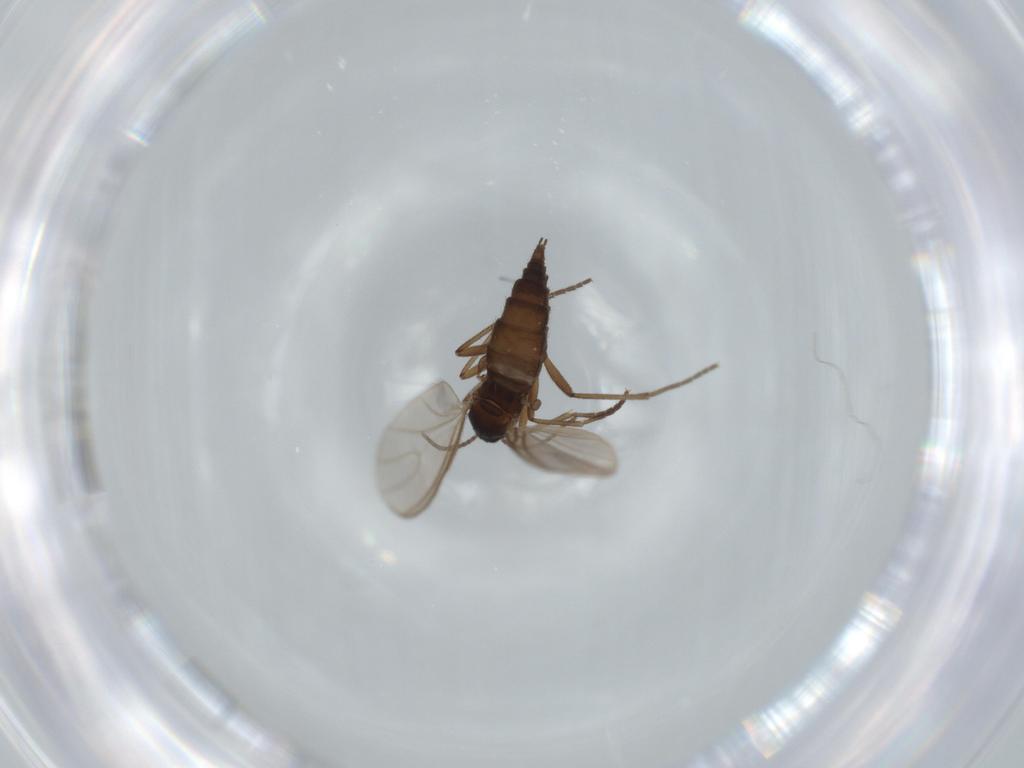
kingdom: Animalia
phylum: Arthropoda
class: Insecta
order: Diptera
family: Sciaridae
